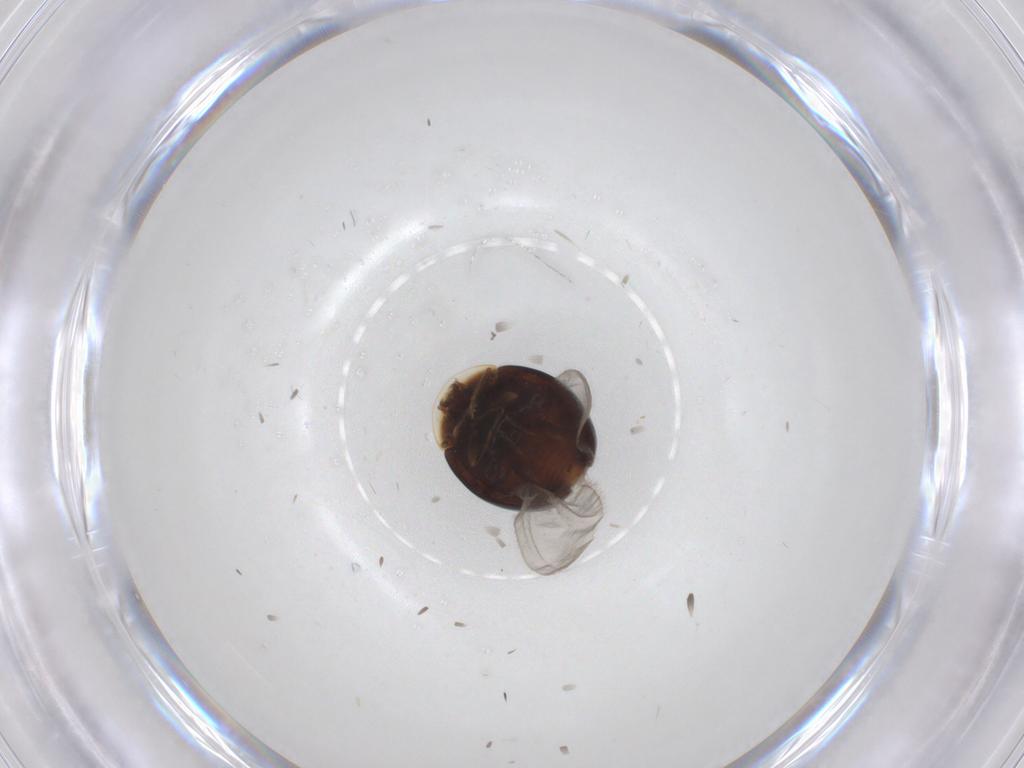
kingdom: Animalia
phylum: Arthropoda
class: Insecta
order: Coleoptera
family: Corylophidae
